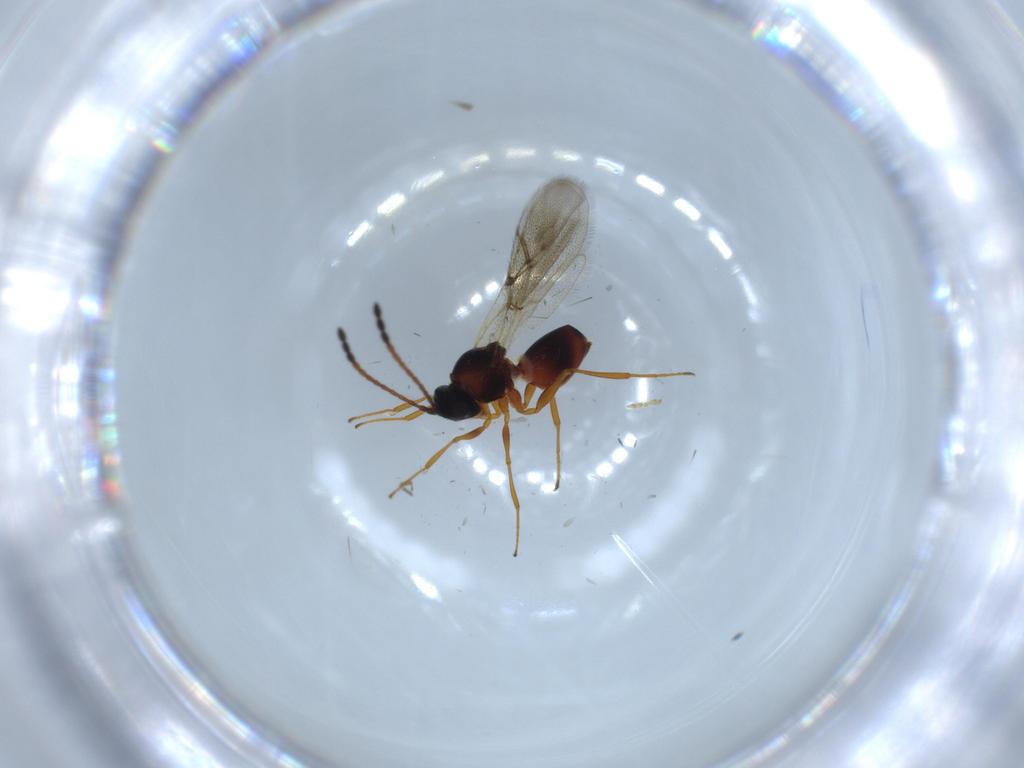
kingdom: Animalia
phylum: Arthropoda
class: Insecta
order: Hymenoptera
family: Figitidae
